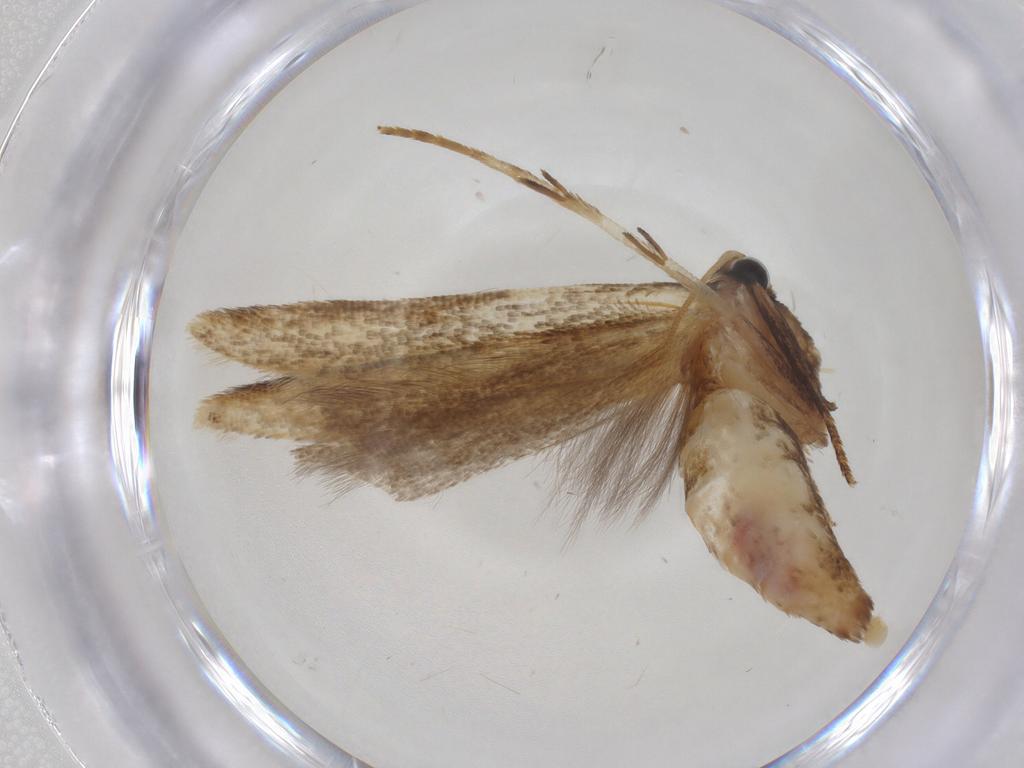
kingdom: Animalia
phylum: Arthropoda
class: Insecta
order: Lepidoptera
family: Gelechiidae
